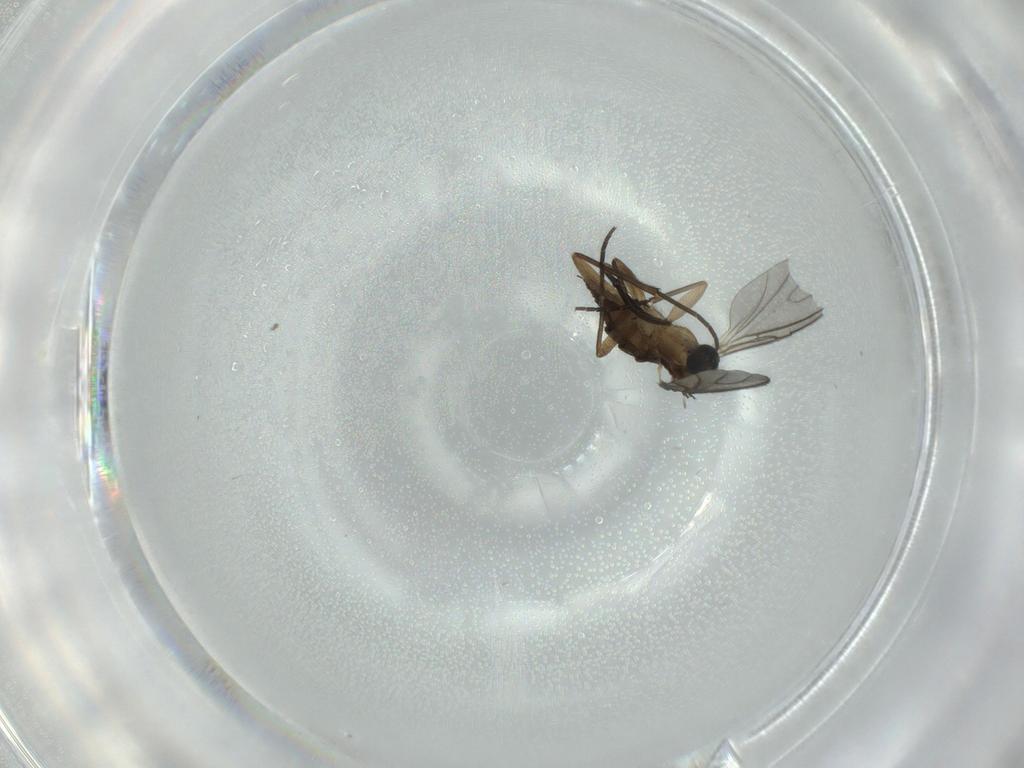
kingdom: Animalia
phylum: Arthropoda
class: Insecta
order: Diptera
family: Sciaridae
